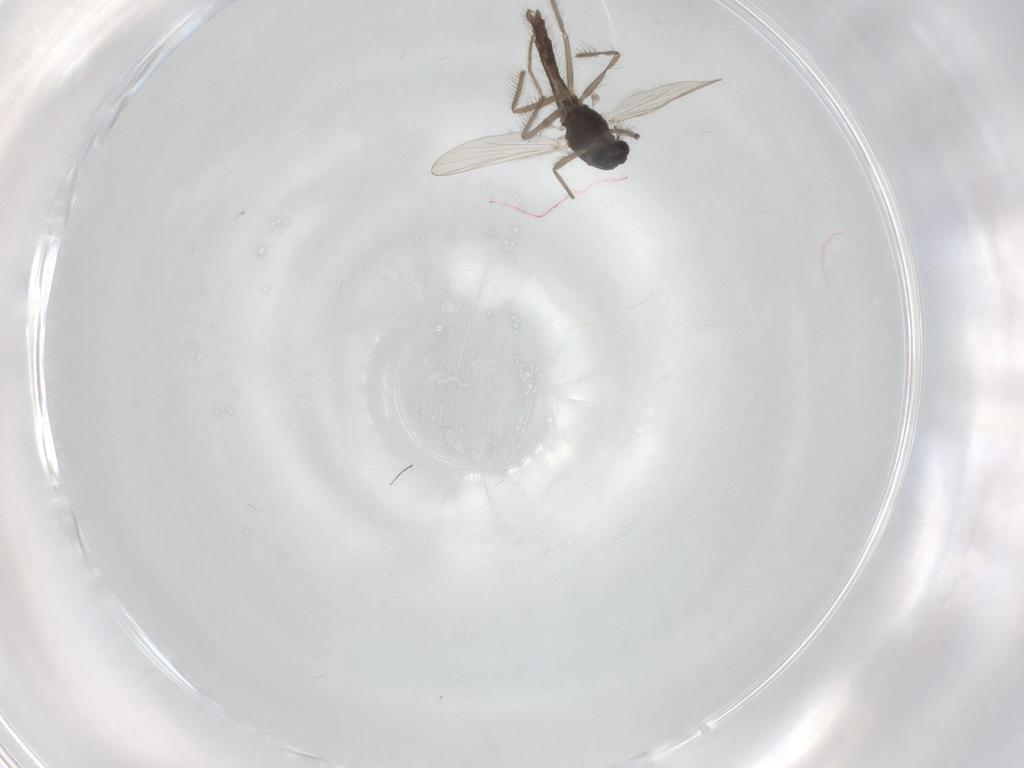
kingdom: Animalia
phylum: Arthropoda
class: Insecta
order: Diptera
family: Chironomidae
